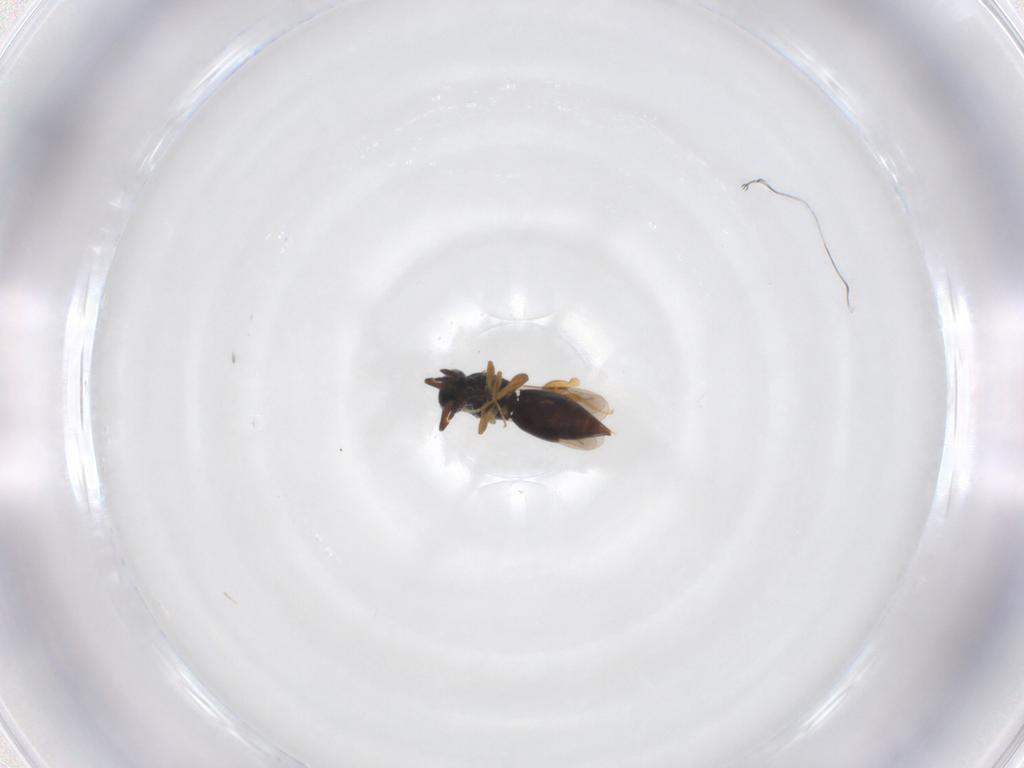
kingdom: Animalia
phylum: Arthropoda
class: Insecta
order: Hymenoptera
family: Ceraphronidae
